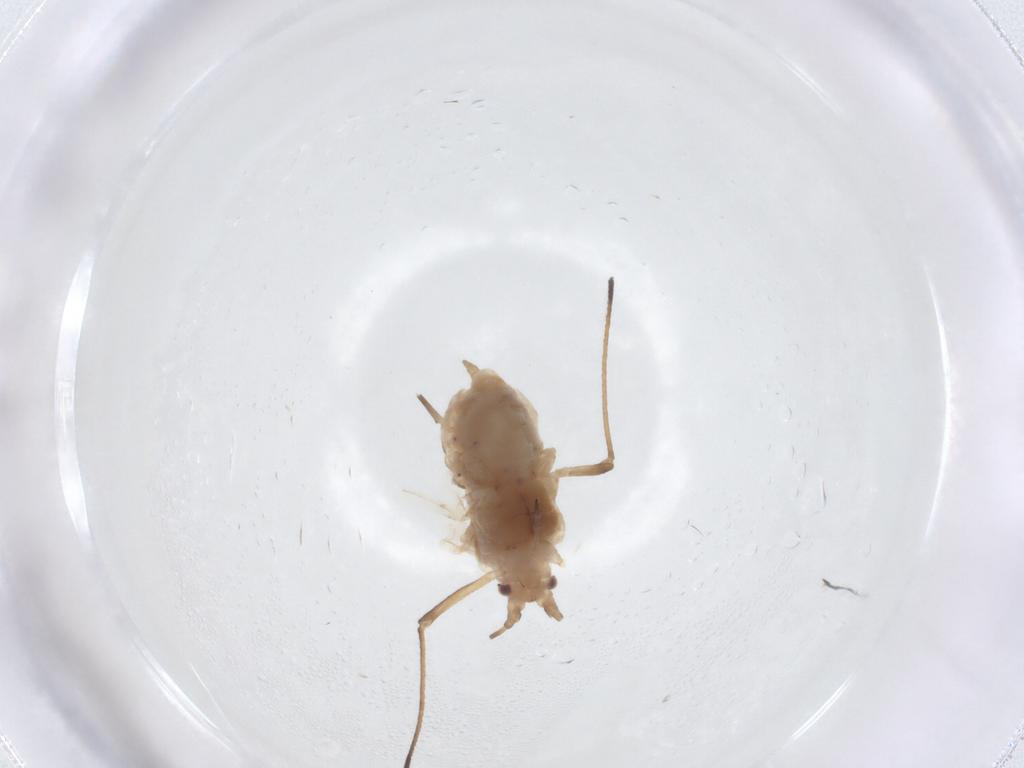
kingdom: Animalia
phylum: Arthropoda
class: Insecta
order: Hemiptera
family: Aphididae
